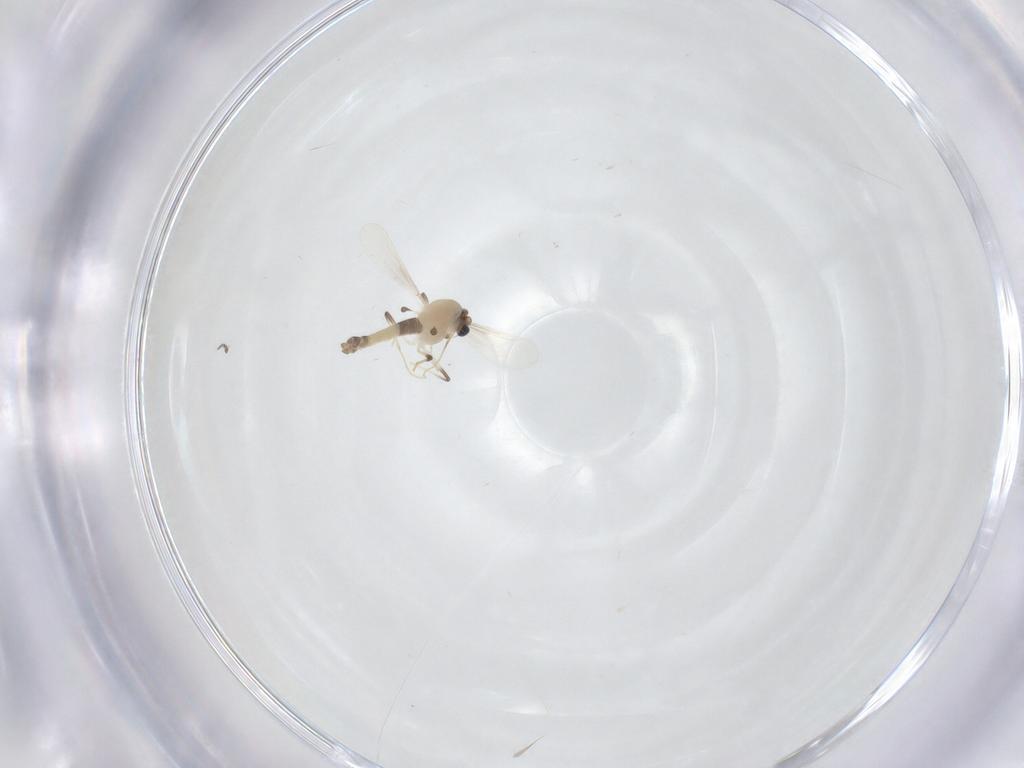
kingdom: Animalia
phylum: Arthropoda
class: Insecta
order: Diptera
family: Chironomidae
